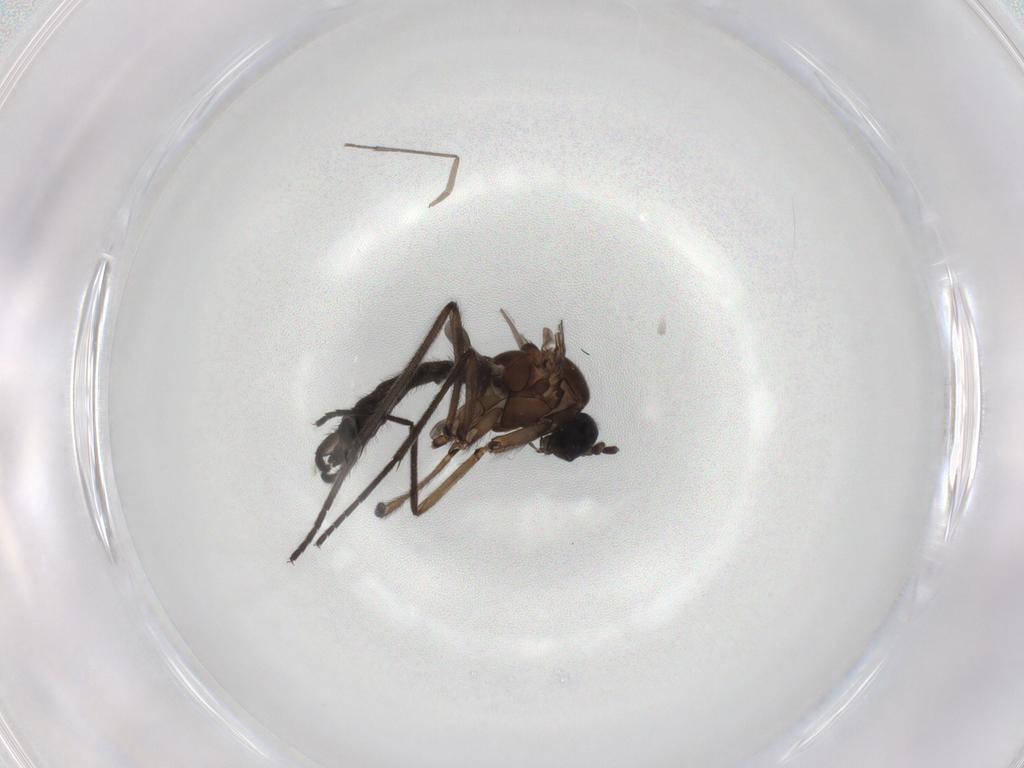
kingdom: Animalia
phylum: Arthropoda
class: Insecta
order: Diptera
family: Sciaridae
